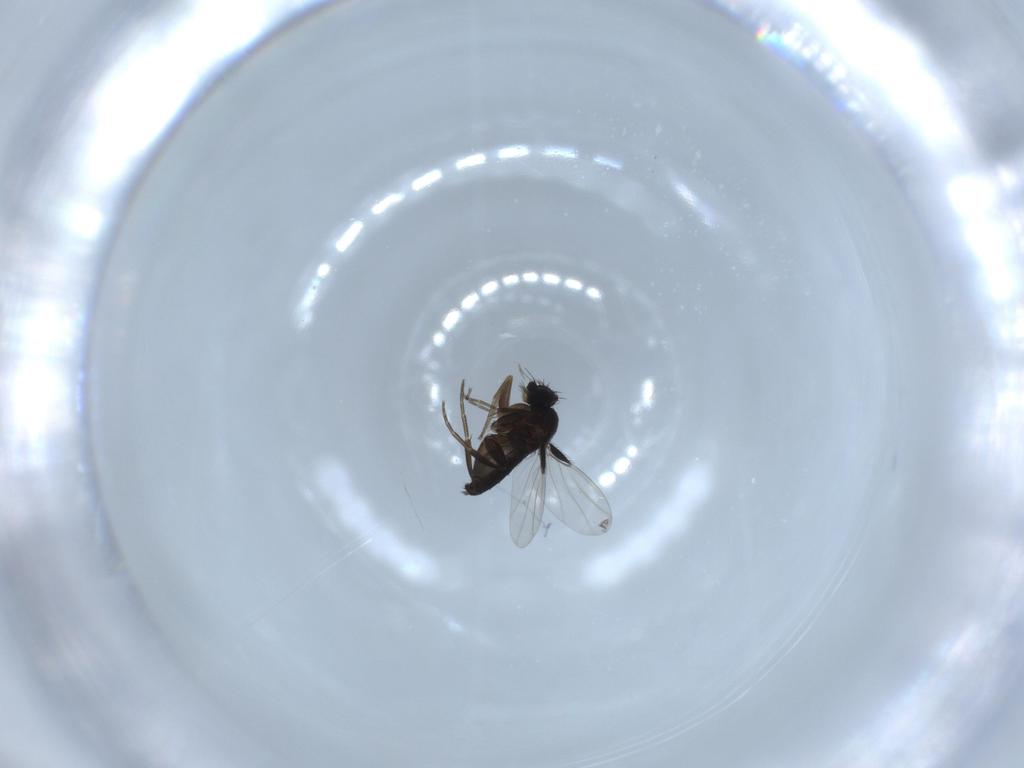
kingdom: Animalia
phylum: Arthropoda
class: Insecta
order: Diptera
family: Phoridae
